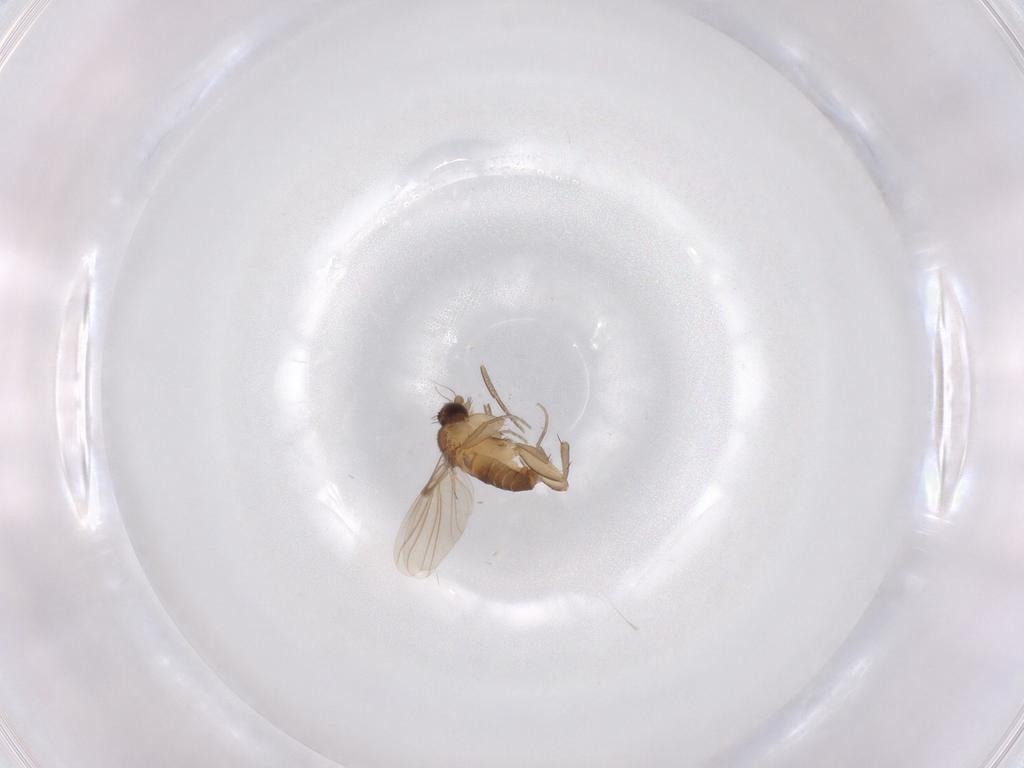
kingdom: Animalia
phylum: Arthropoda
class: Insecta
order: Diptera
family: Phoridae
